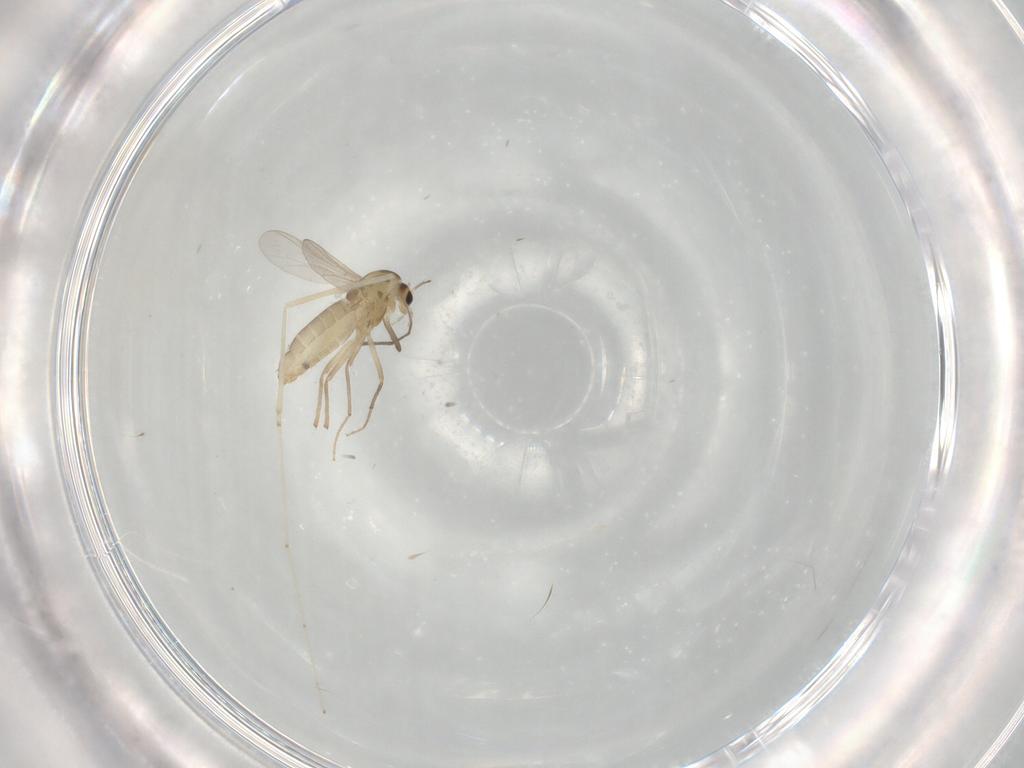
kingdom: Animalia
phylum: Arthropoda
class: Insecta
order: Diptera
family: Chironomidae
